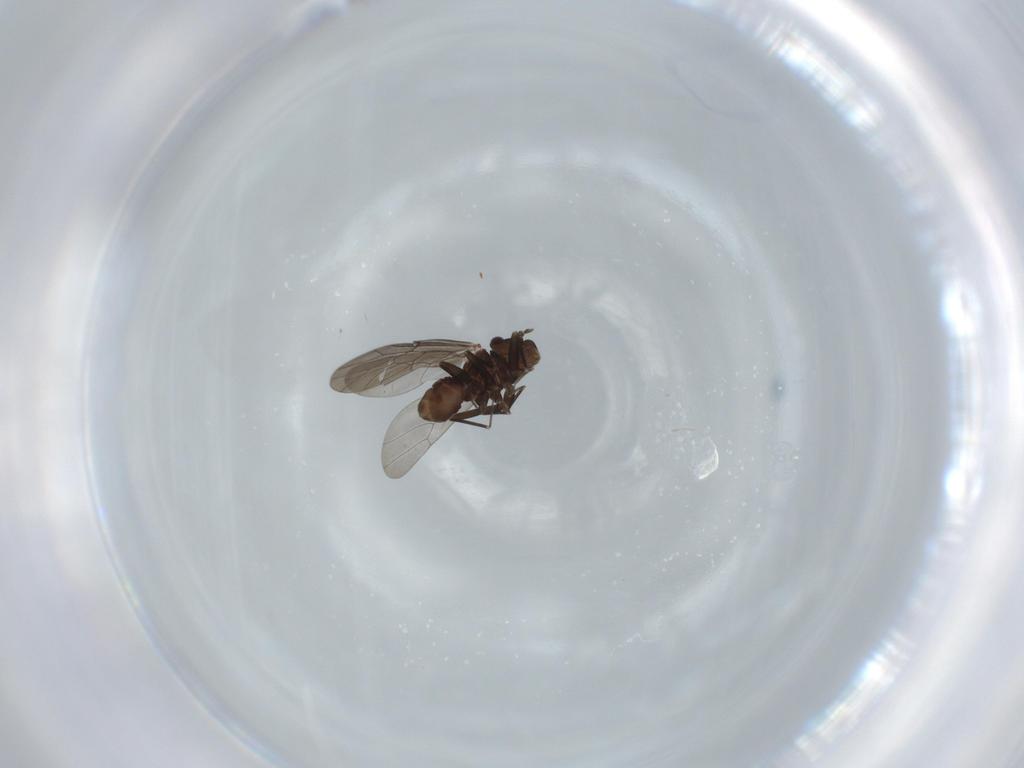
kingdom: Animalia
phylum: Arthropoda
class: Insecta
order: Psocodea
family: Lepidopsocidae
